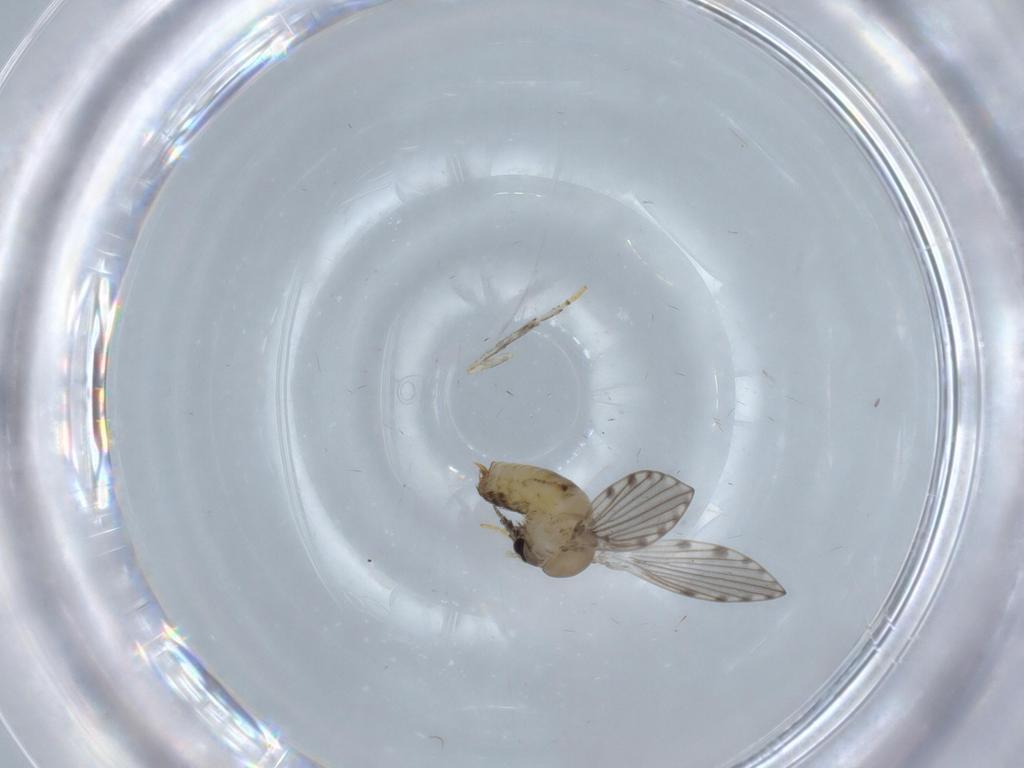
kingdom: Animalia
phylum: Arthropoda
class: Insecta
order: Diptera
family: Psychodidae
